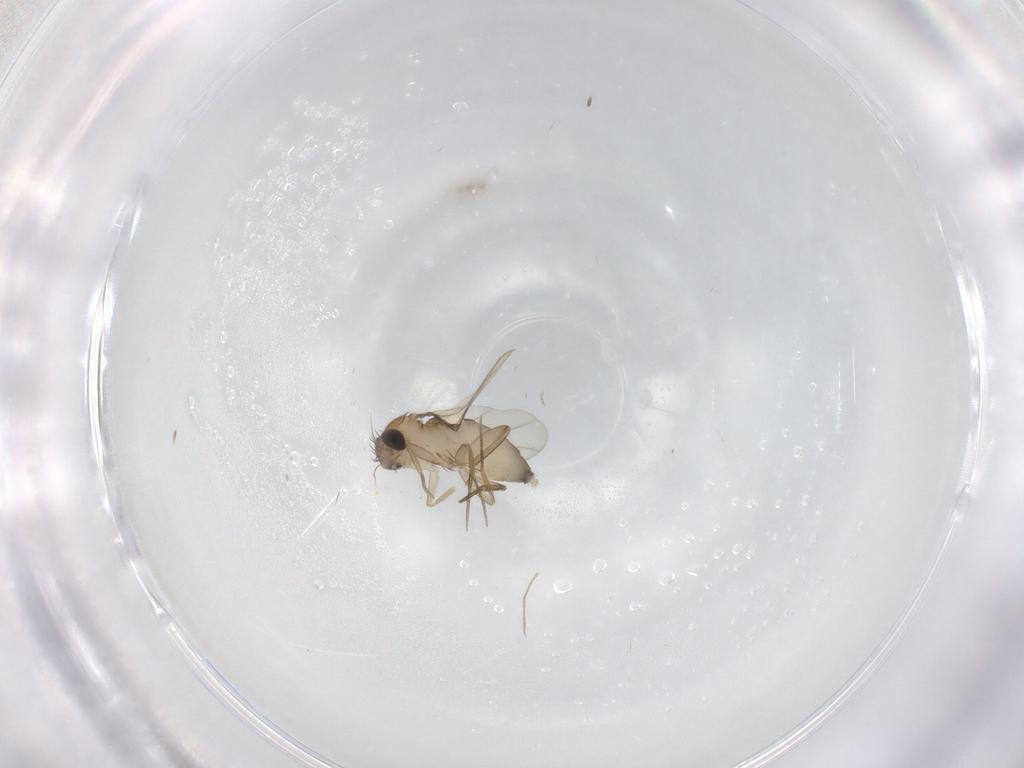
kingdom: Animalia
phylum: Arthropoda
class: Insecta
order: Diptera
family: Phoridae
